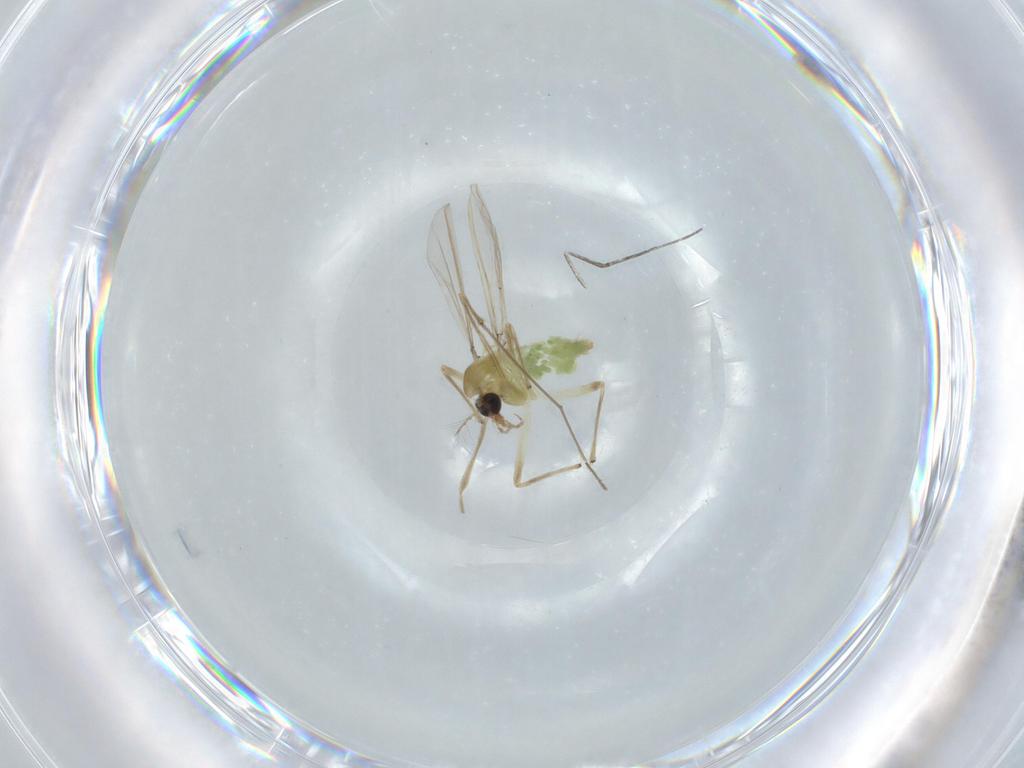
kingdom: Animalia
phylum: Arthropoda
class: Insecta
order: Diptera
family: Chironomidae
